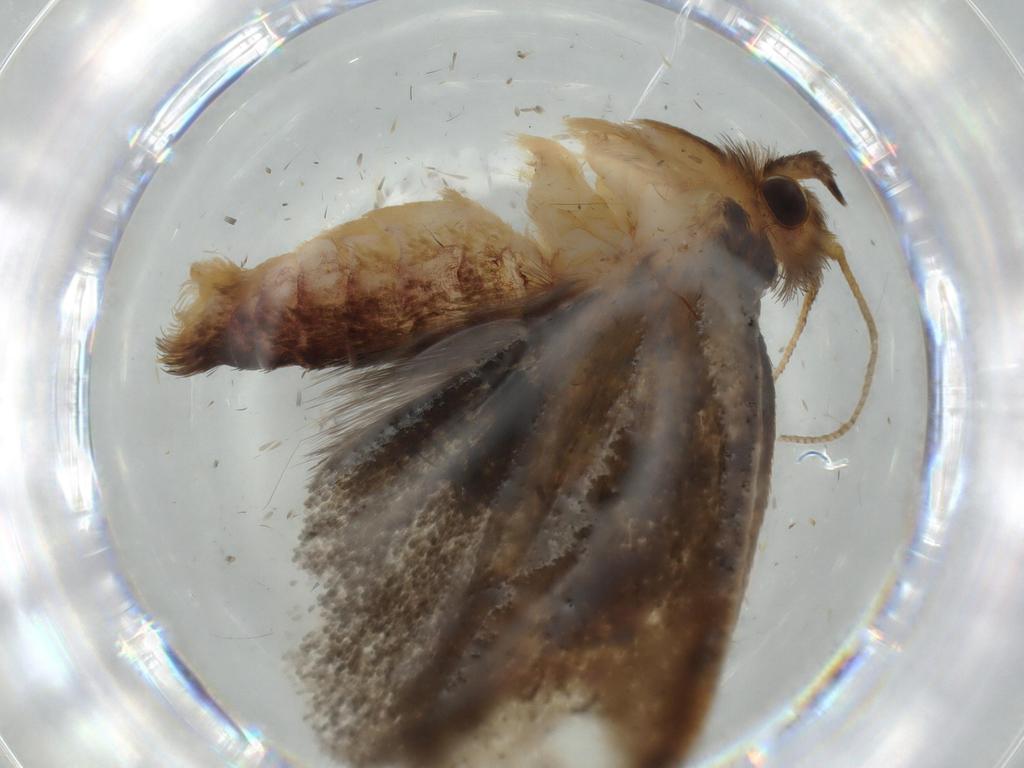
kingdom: Animalia
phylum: Arthropoda
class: Insecta
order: Lepidoptera
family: Tineidae
